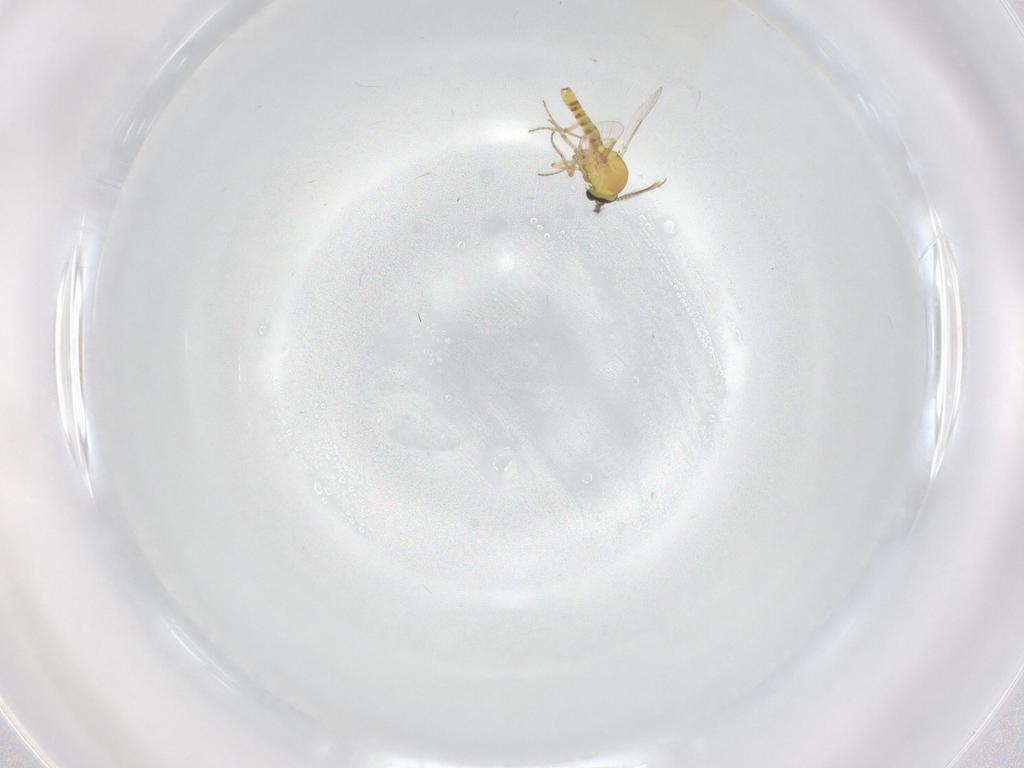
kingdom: Animalia
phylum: Arthropoda
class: Insecta
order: Diptera
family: Ceratopogonidae
